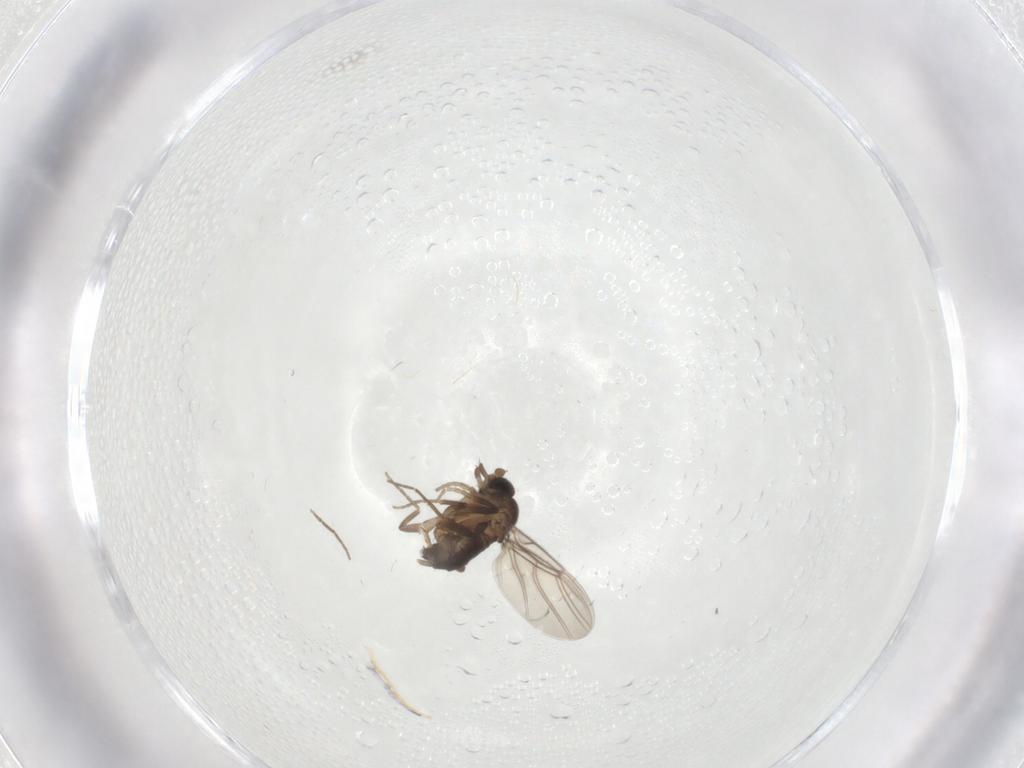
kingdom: Animalia
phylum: Arthropoda
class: Insecta
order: Diptera
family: Cecidomyiidae
